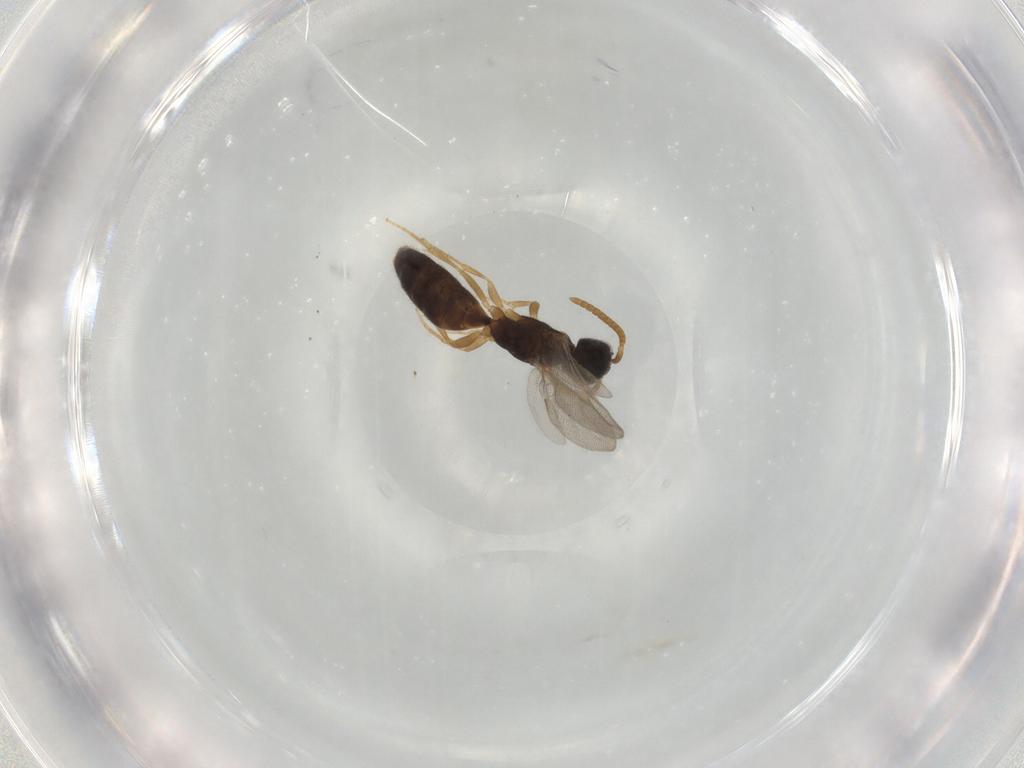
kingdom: Animalia
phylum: Arthropoda
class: Insecta
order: Hymenoptera
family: Bethylidae
